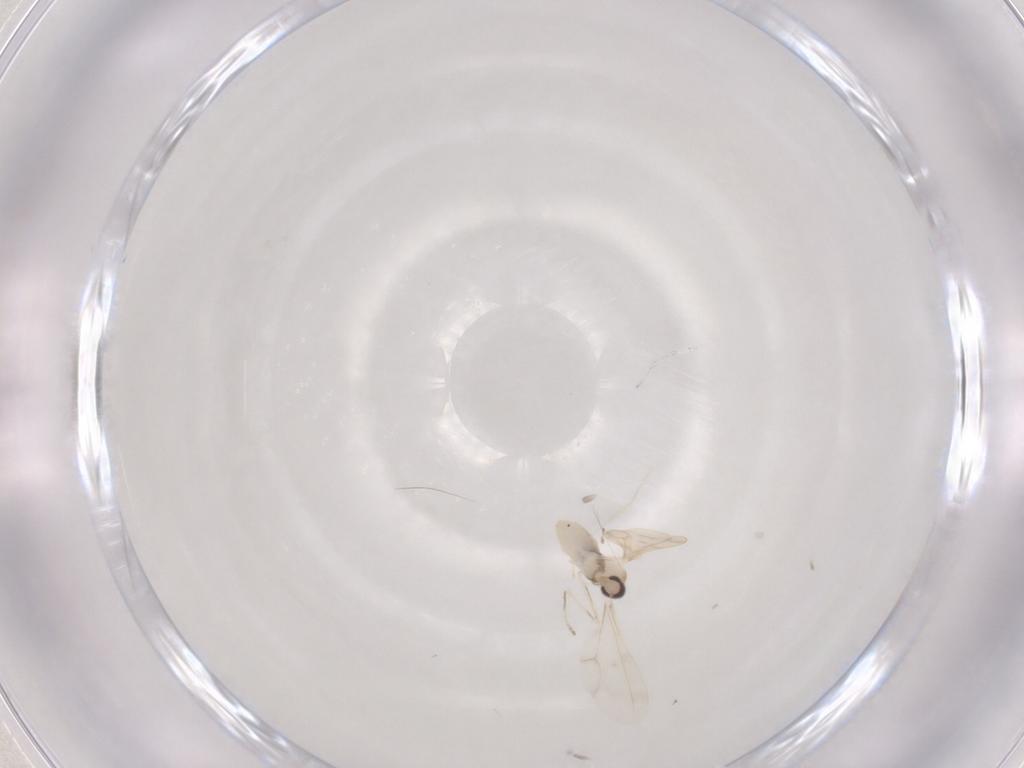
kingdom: Animalia
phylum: Arthropoda
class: Insecta
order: Diptera
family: Cecidomyiidae
